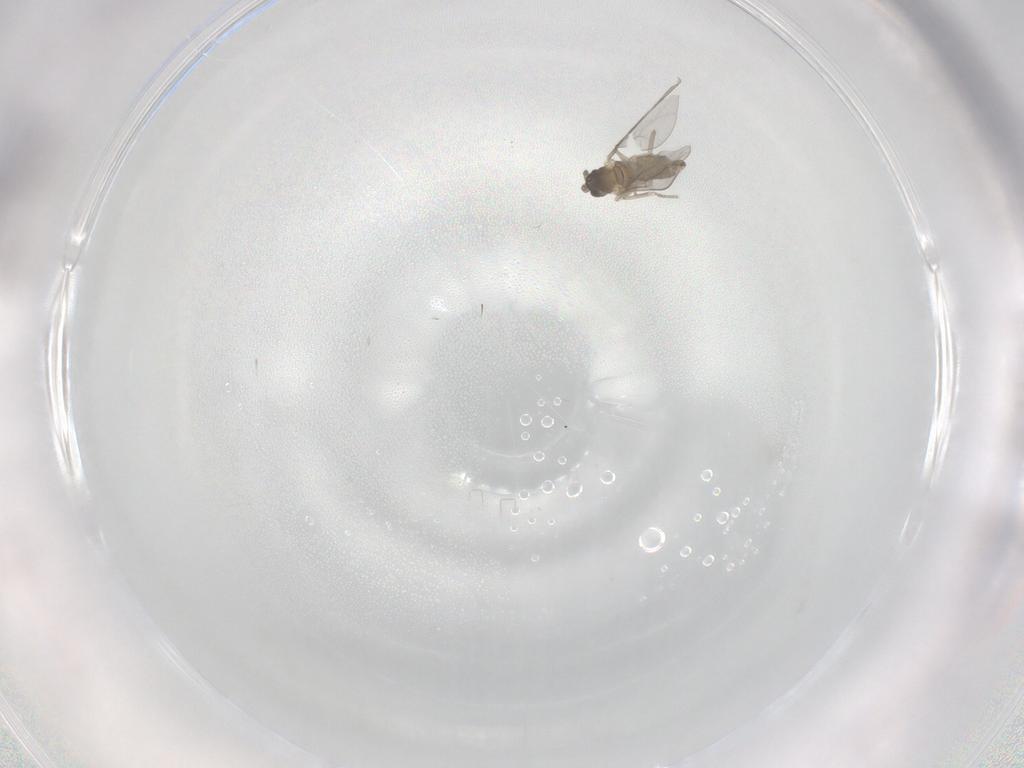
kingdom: Animalia
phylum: Arthropoda
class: Insecta
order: Diptera
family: Cecidomyiidae
